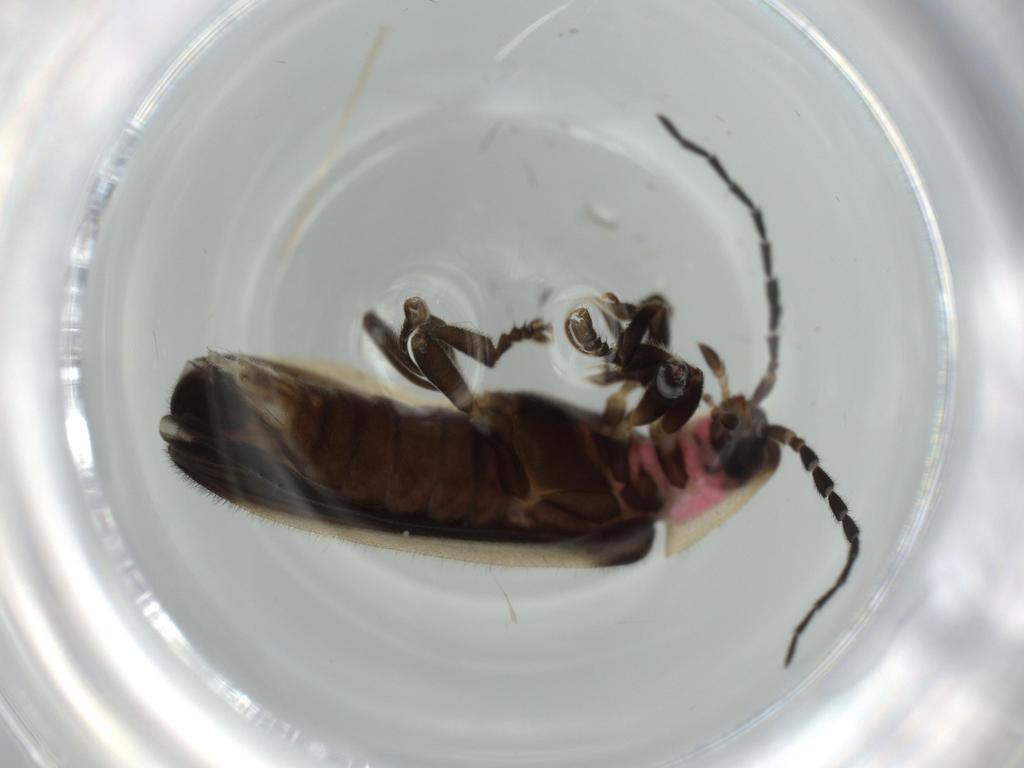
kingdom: Animalia
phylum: Arthropoda
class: Insecta
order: Coleoptera
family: Lampyridae
